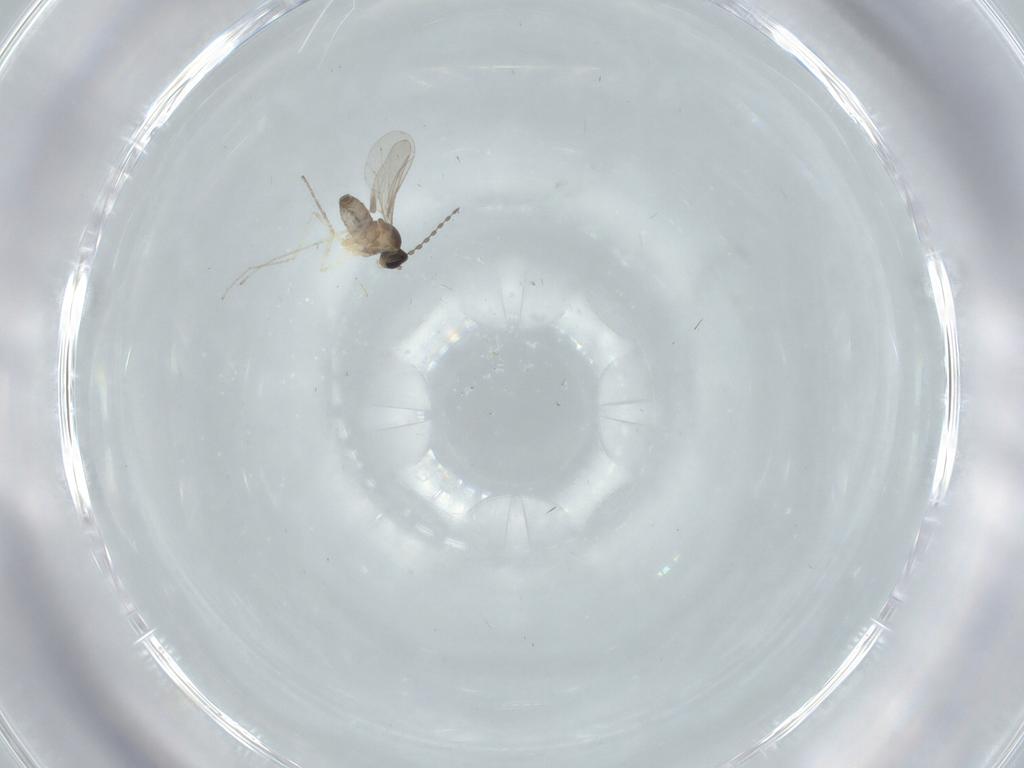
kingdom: Animalia
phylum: Arthropoda
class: Insecta
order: Diptera
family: Cecidomyiidae
